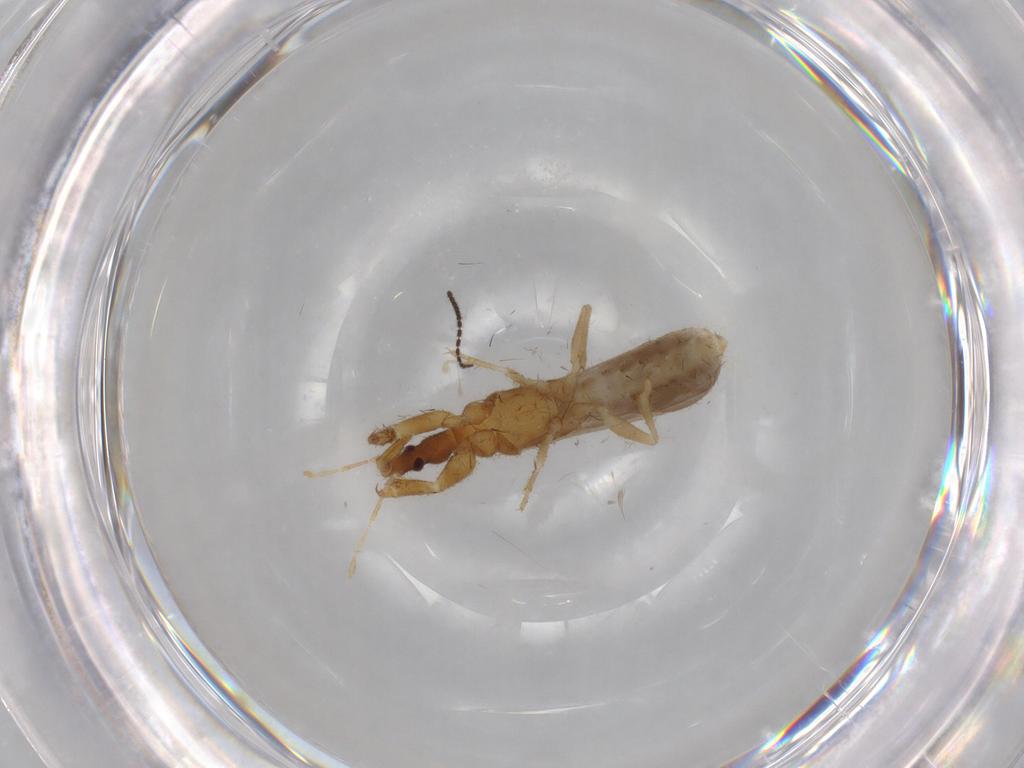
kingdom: Animalia
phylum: Arthropoda
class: Insecta
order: Hemiptera
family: Enicocephalidae
